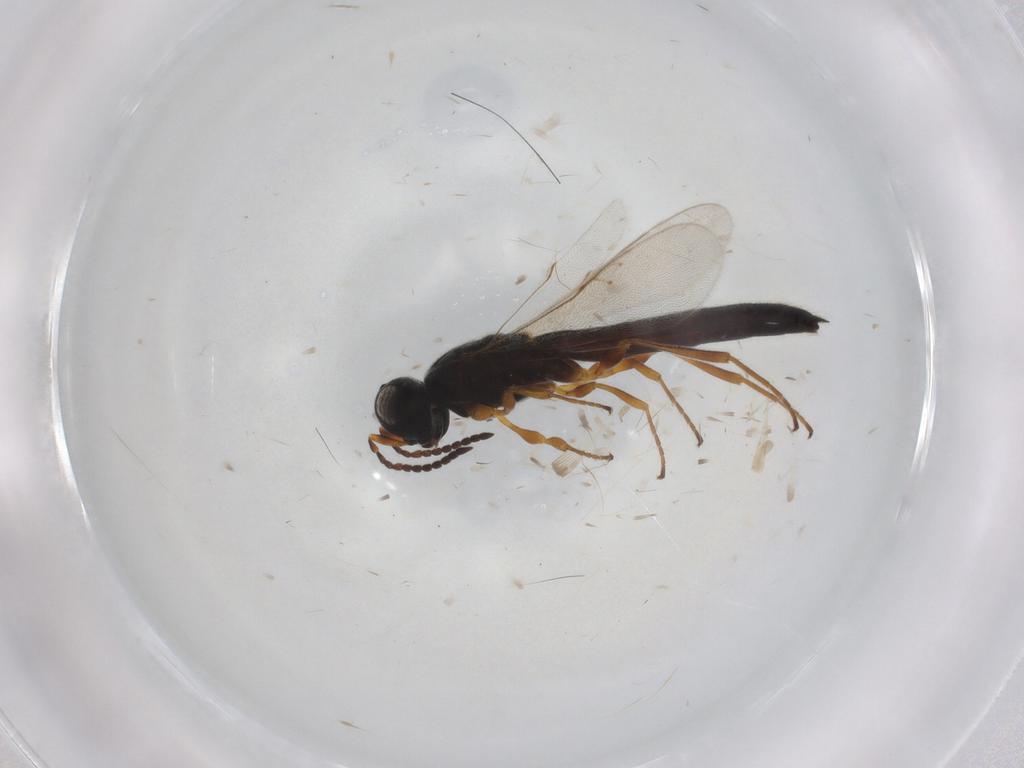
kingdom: Animalia
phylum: Arthropoda
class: Insecta
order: Hymenoptera
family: Scelionidae
